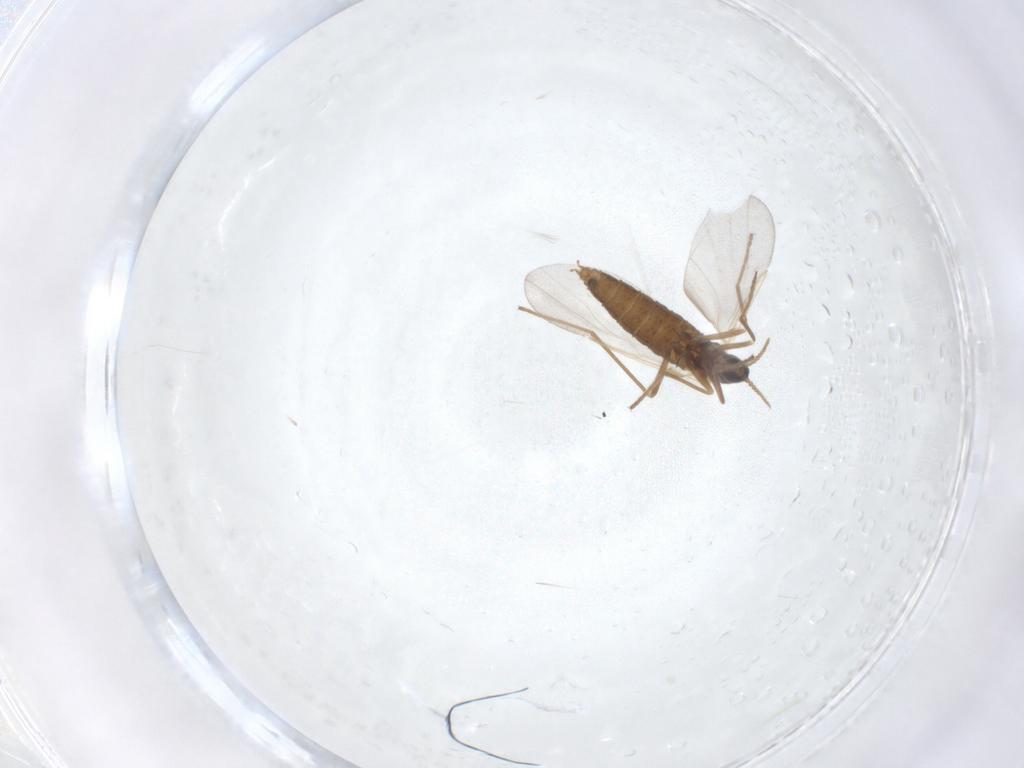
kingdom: Animalia
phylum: Arthropoda
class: Insecta
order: Diptera
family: Cecidomyiidae
